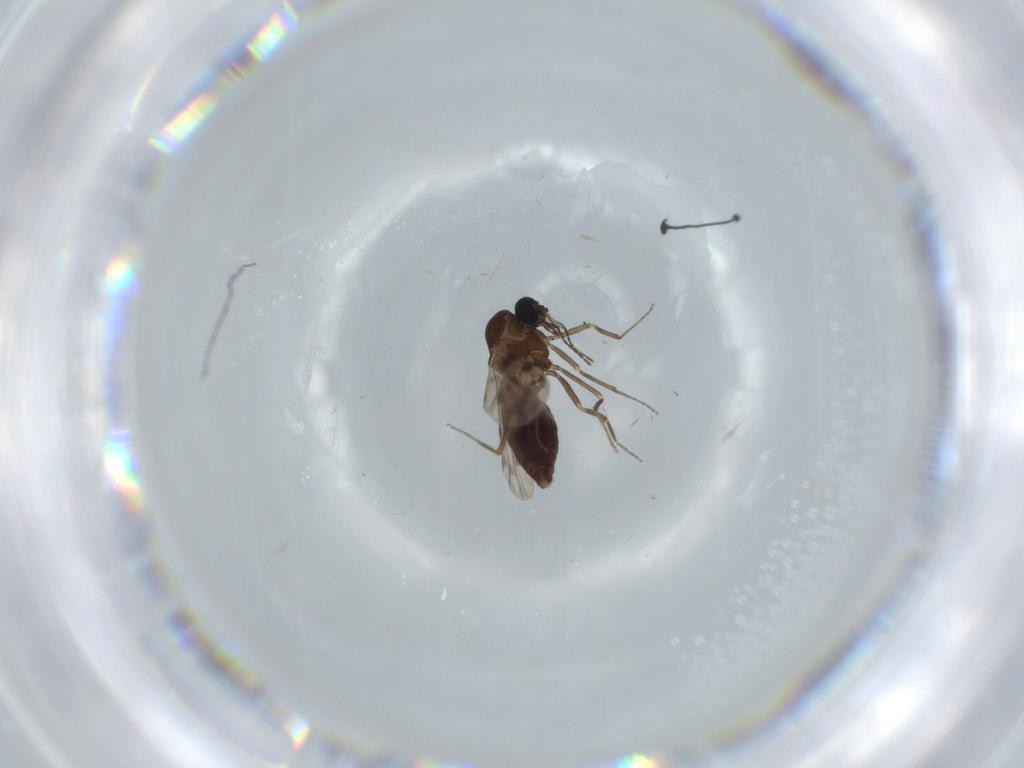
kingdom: Animalia
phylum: Arthropoda
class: Insecta
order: Diptera
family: Ceratopogonidae
